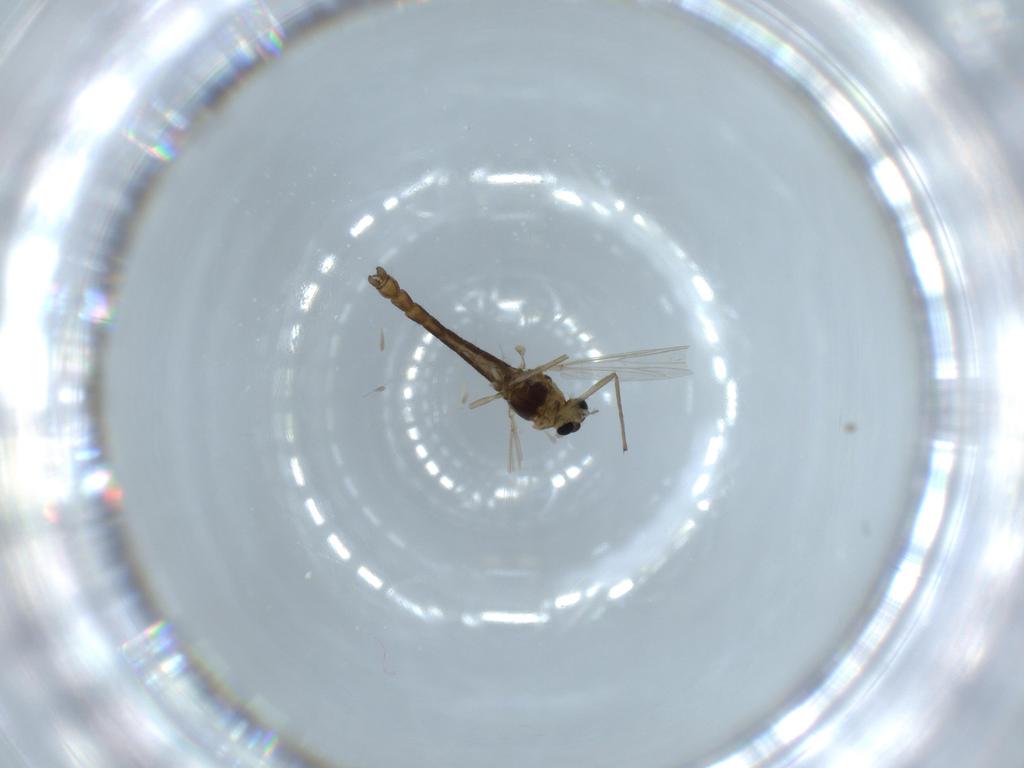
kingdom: Animalia
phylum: Arthropoda
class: Insecta
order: Diptera
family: Chironomidae
